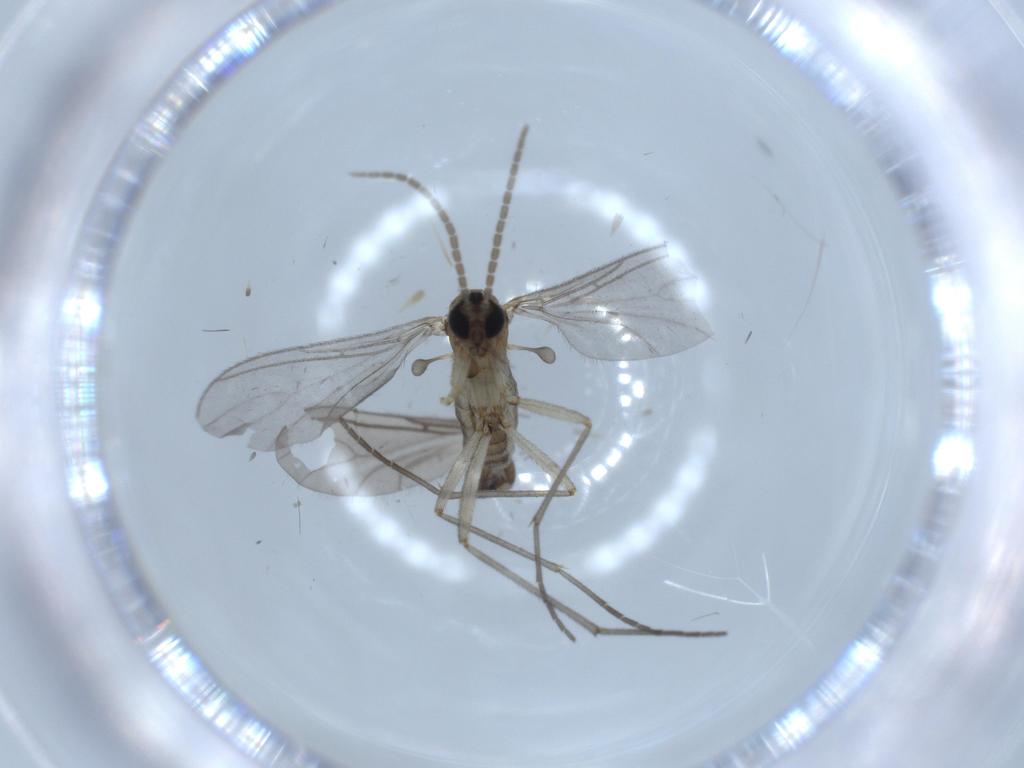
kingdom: Animalia
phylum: Arthropoda
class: Insecta
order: Diptera
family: Sciaridae
